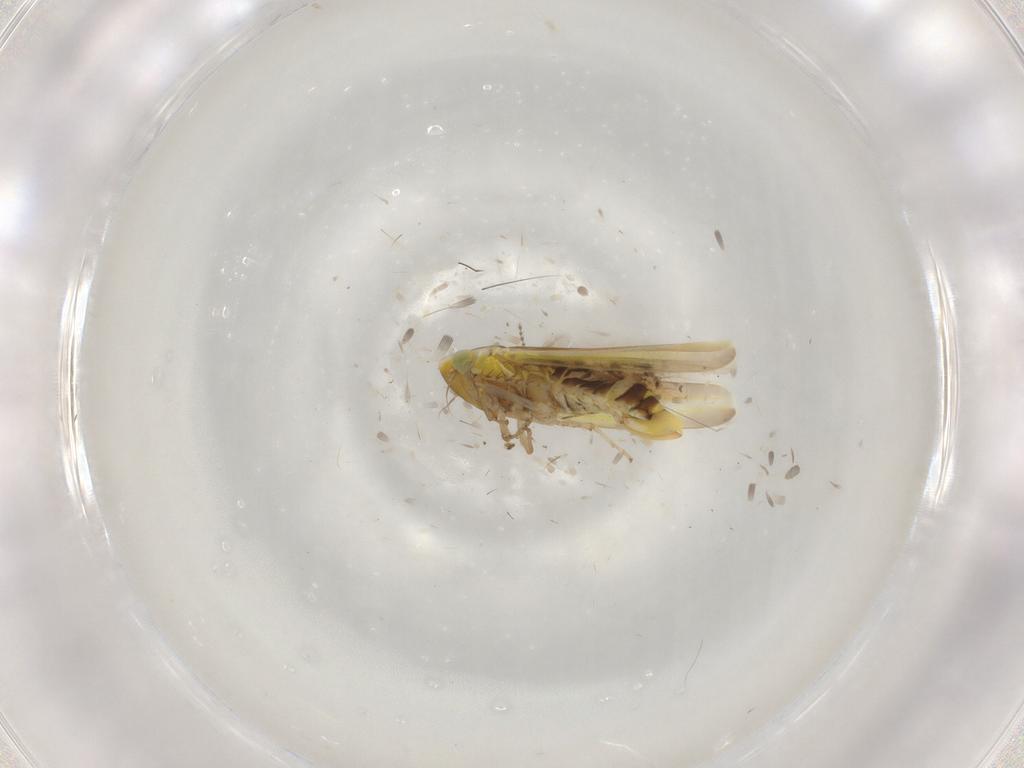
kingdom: Animalia
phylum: Arthropoda
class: Insecta
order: Hemiptera
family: Cicadellidae
